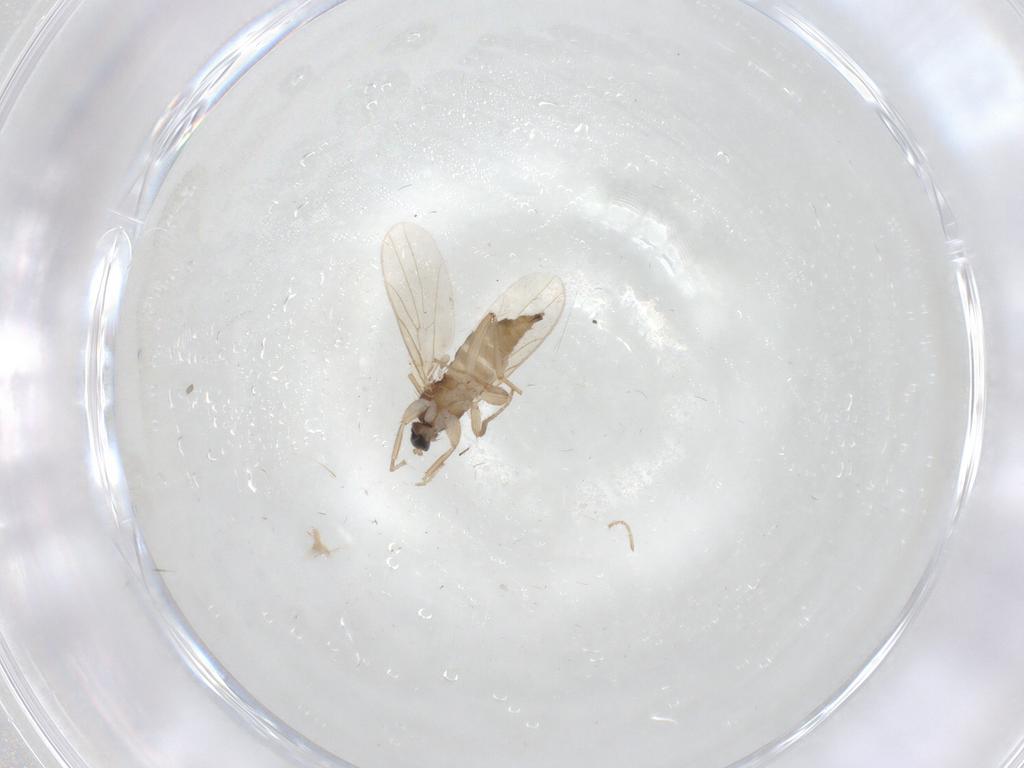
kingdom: Animalia
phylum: Arthropoda
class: Insecta
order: Diptera
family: Hybotidae
